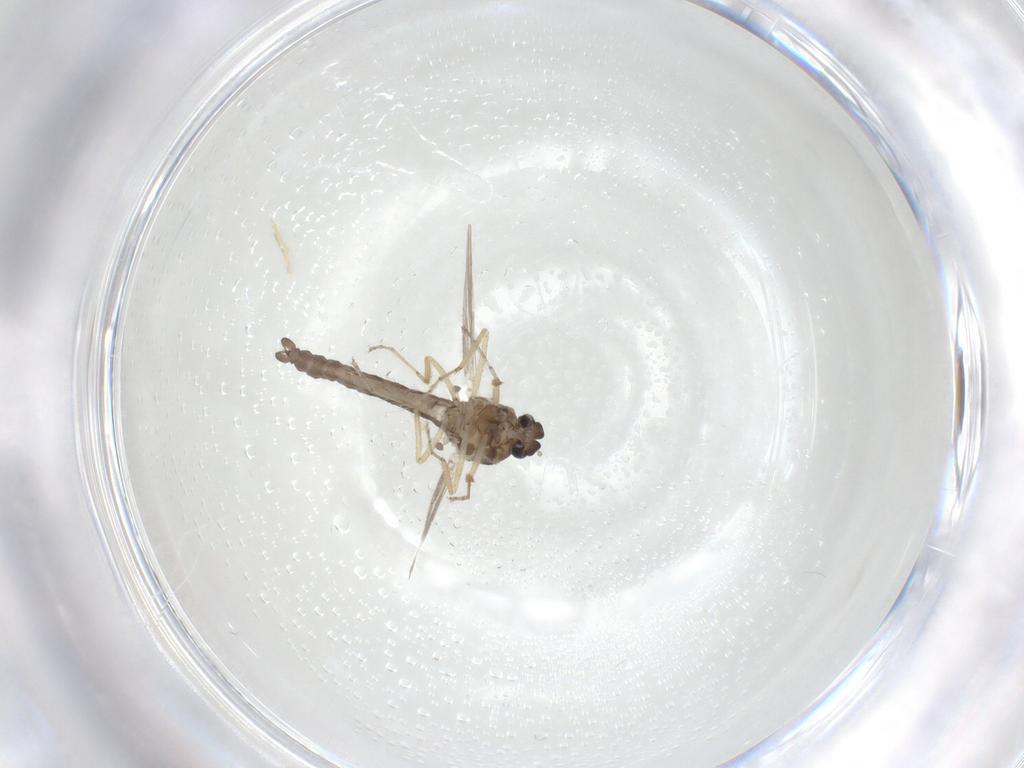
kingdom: Animalia
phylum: Arthropoda
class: Insecta
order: Diptera
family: Ceratopogonidae
